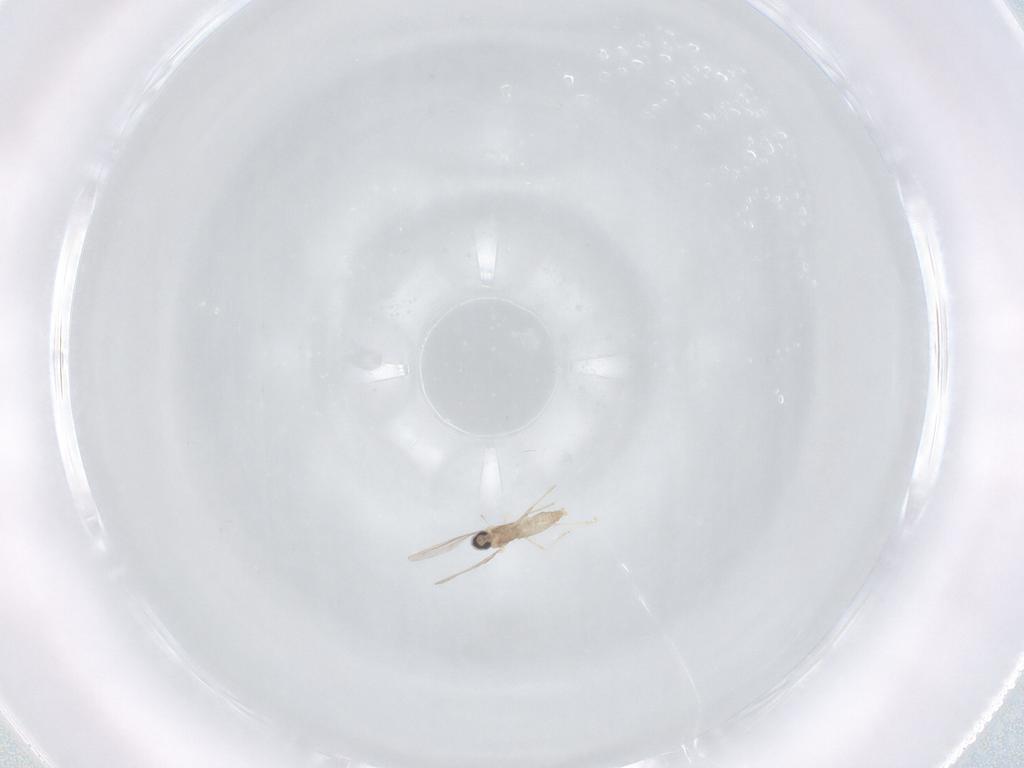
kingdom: Animalia
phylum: Arthropoda
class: Insecta
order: Diptera
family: Cecidomyiidae
